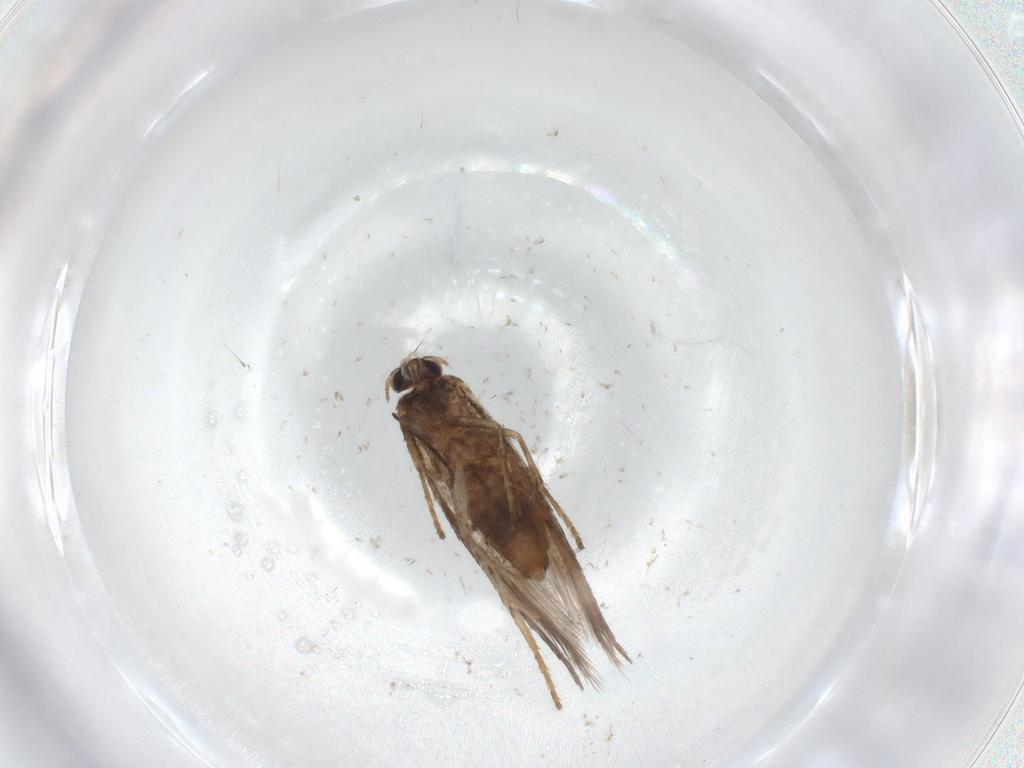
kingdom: Animalia
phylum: Arthropoda
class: Insecta
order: Lepidoptera
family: Nepticulidae
